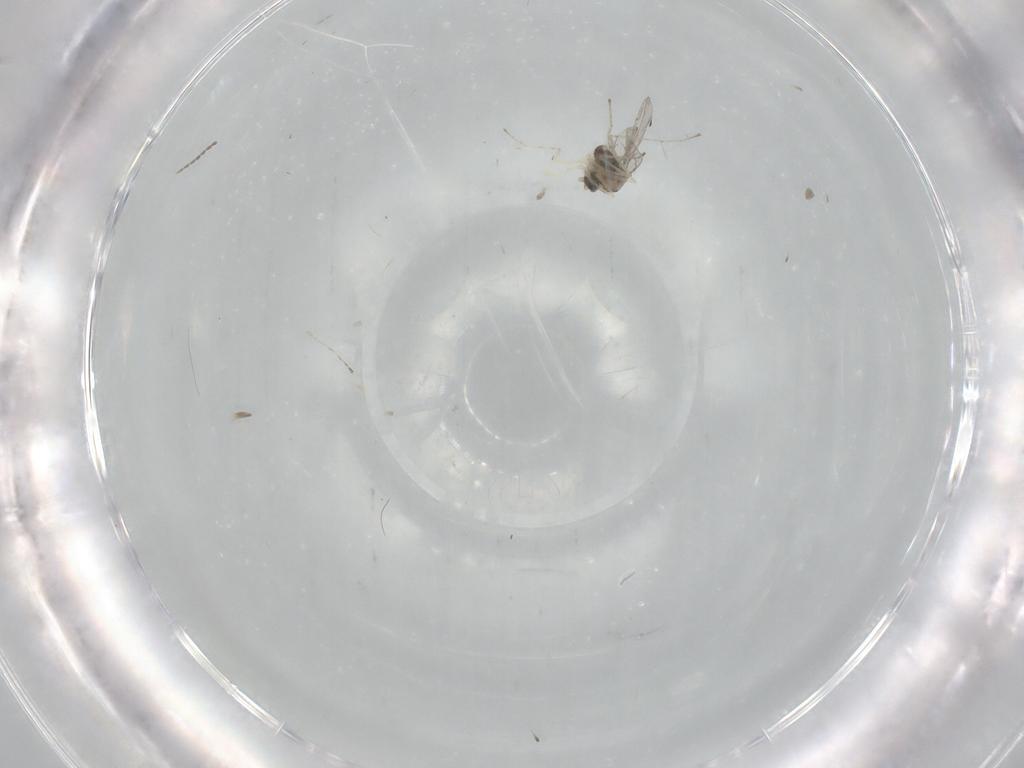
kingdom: Animalia
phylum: Arthropoda
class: Insecta
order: Diptera
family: Cecidomyiidae
